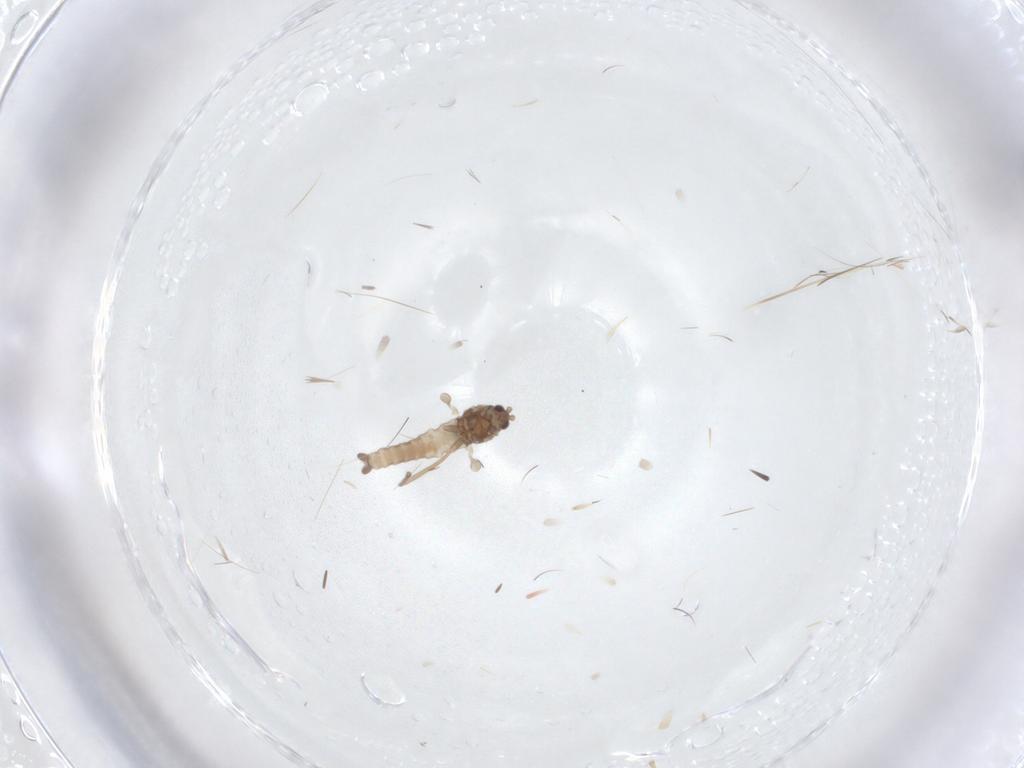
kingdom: Animalia
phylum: Arthropoda
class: Insecta
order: Diptera
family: Cecidomyiidae
